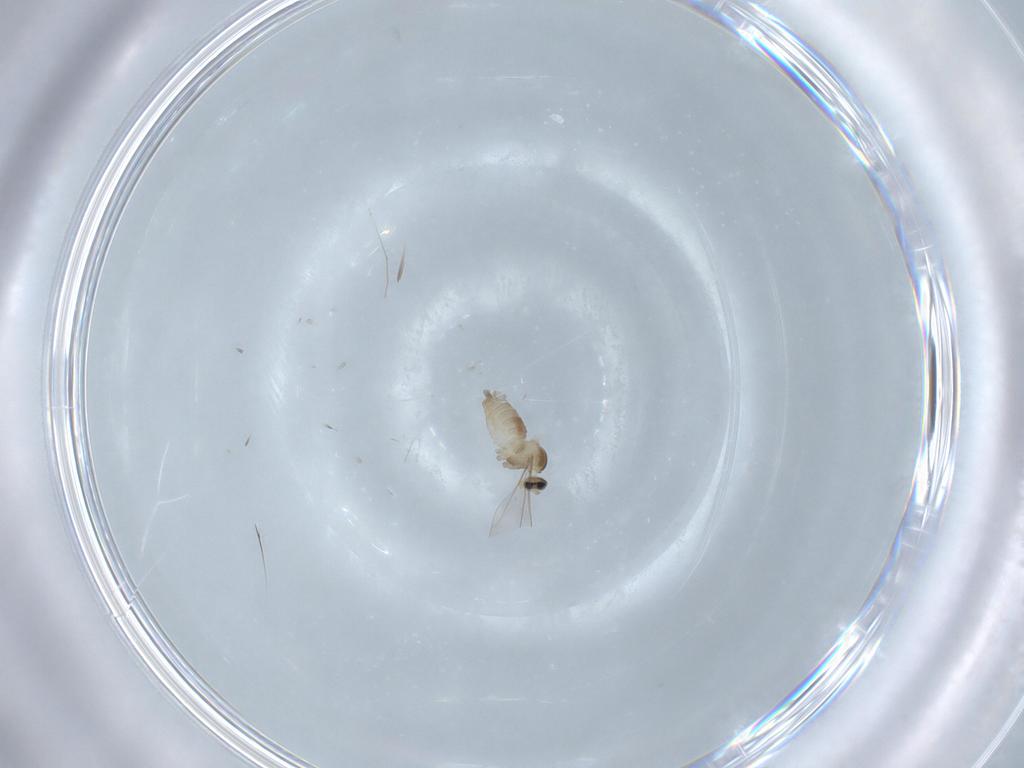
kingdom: Animalia
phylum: Arthropoda
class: Insecta
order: Diptera
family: Cecidomyiidae
